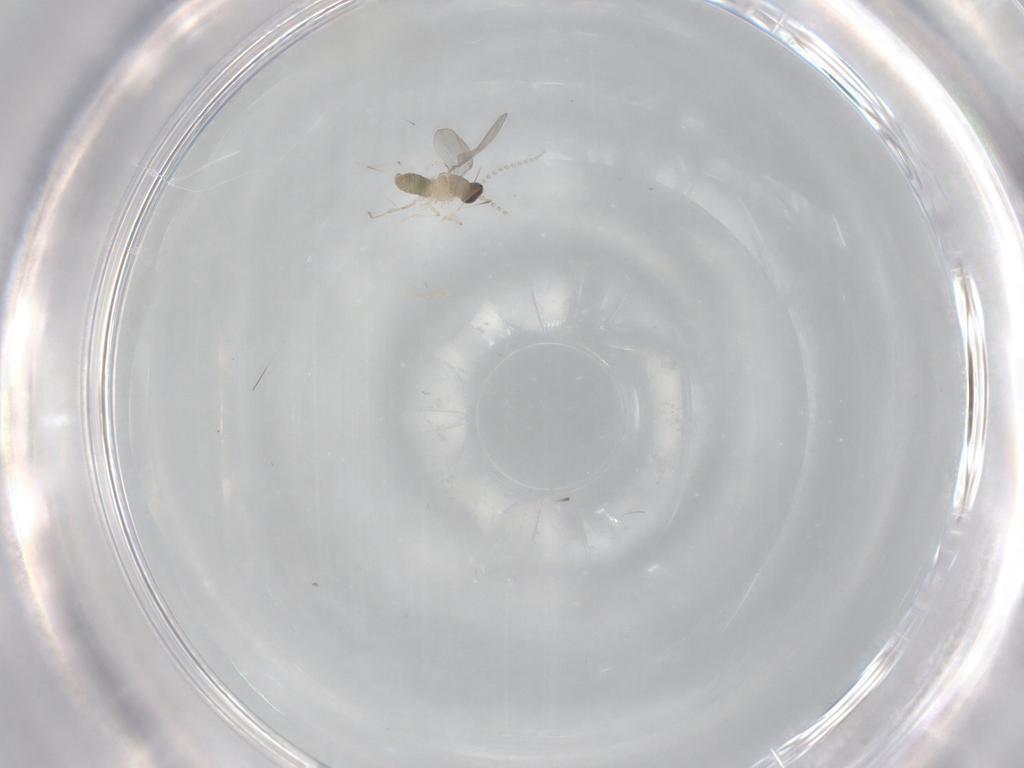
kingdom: Animalia
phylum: Arthropoda
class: Insecta
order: Diptera
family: Cecidomyiidae
